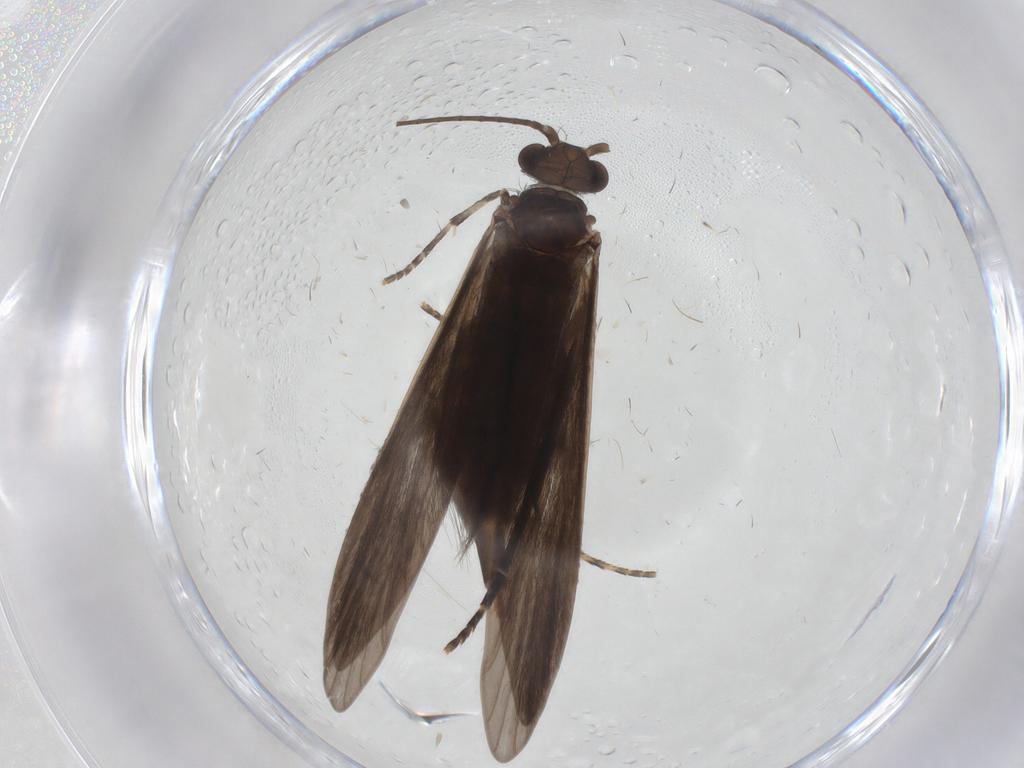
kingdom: Animalia
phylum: Arthropoda
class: Insecta
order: Trichoptera
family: Xiphocentronidae
